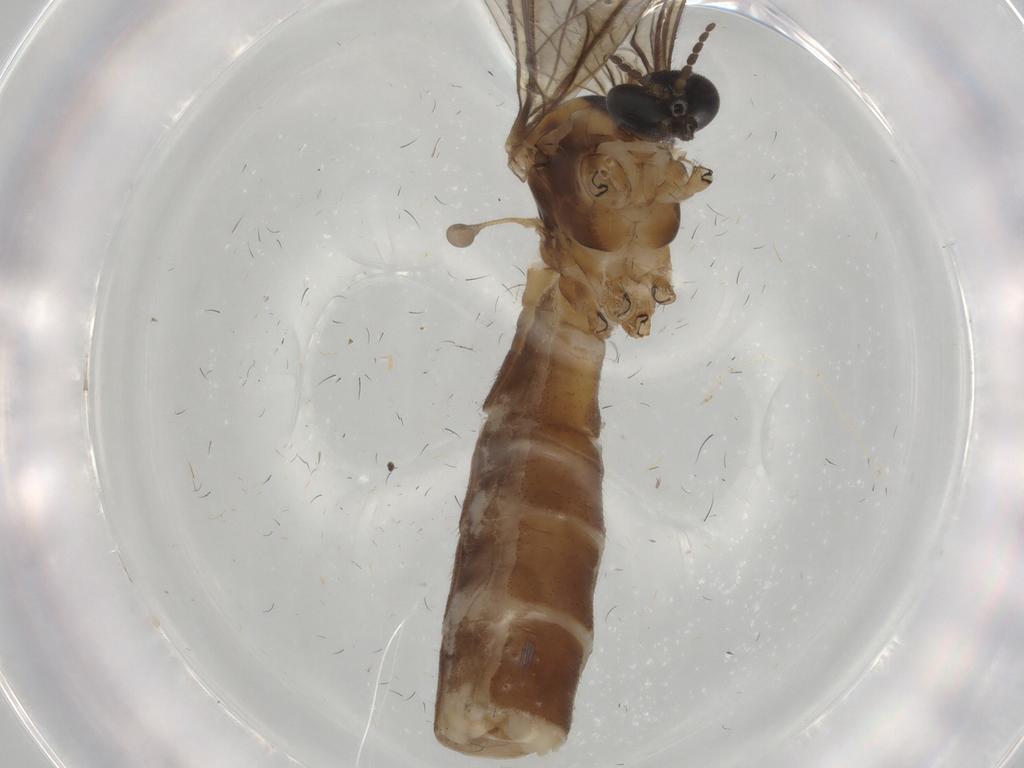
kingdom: Animalia
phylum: Arthropoda
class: Insecta
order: Diptera
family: Limoniidae
